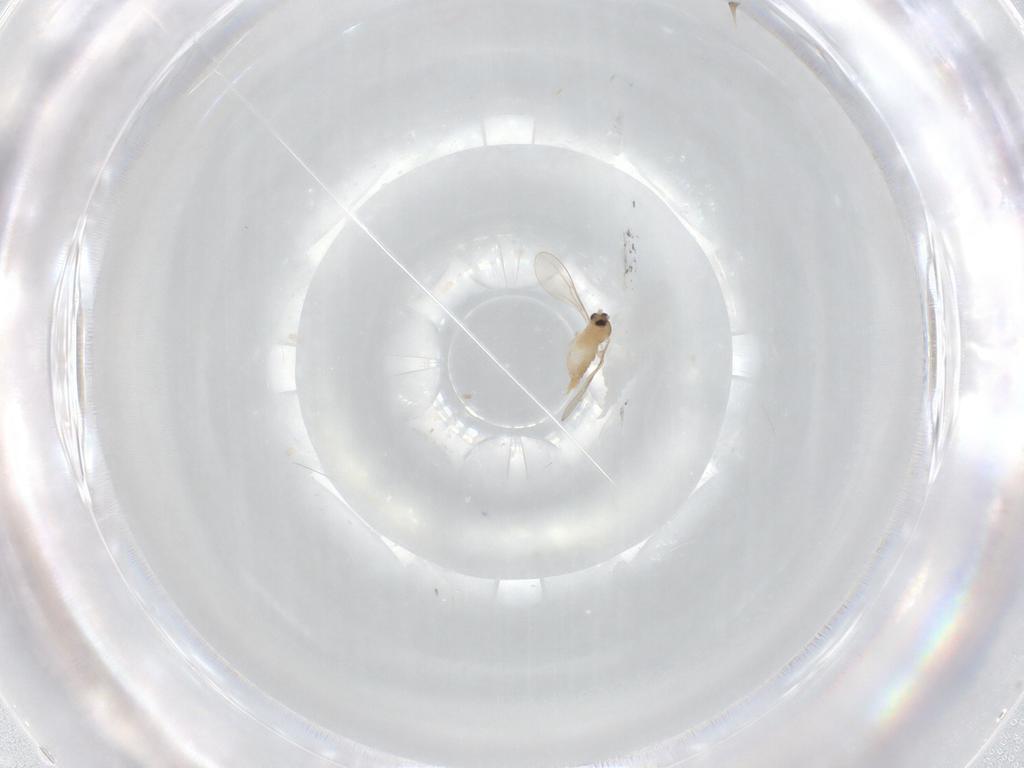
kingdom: Animalia
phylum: Arthropoda
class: Insecta
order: Diptera
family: Cecidomyiidae
